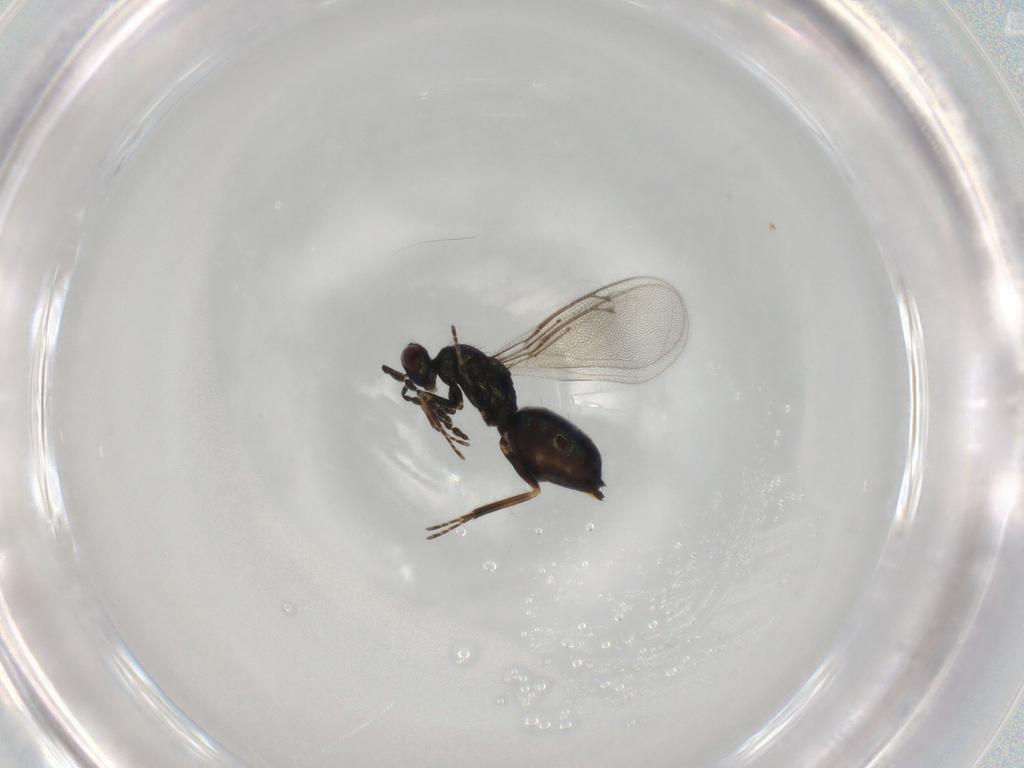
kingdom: Animalia
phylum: Arthropoda
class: Insecta
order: Hymenoptera
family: Eulophidae
